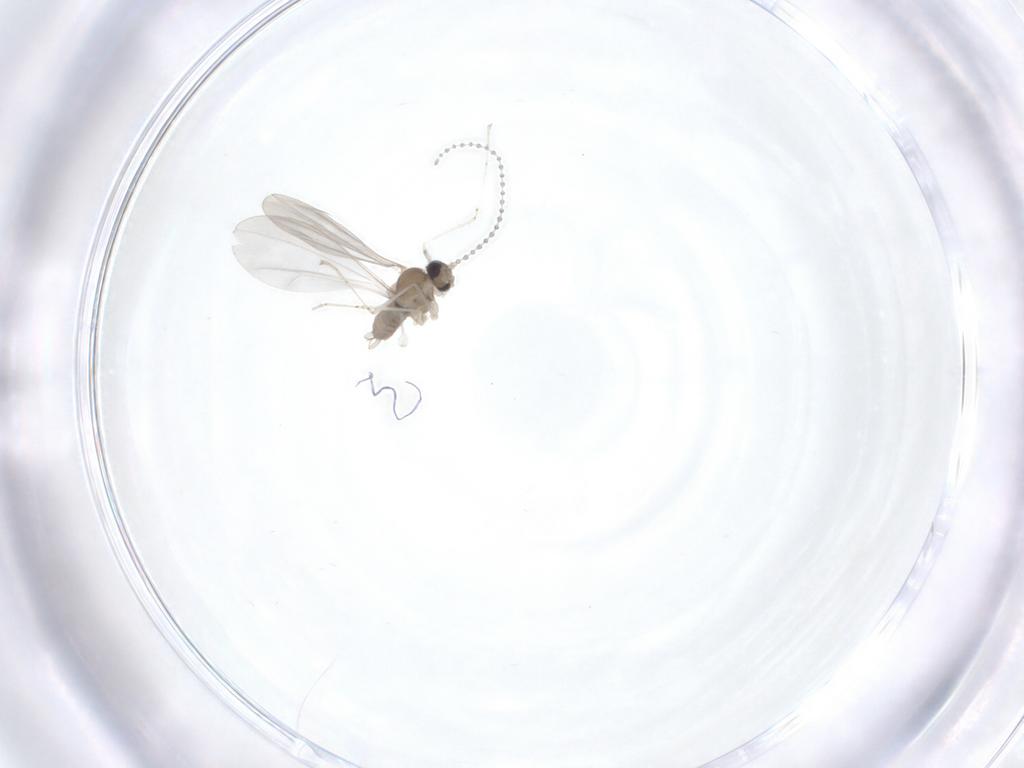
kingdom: Animalia
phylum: Arthropoda
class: Insecta
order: Diptera
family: Cecidomyiidae
